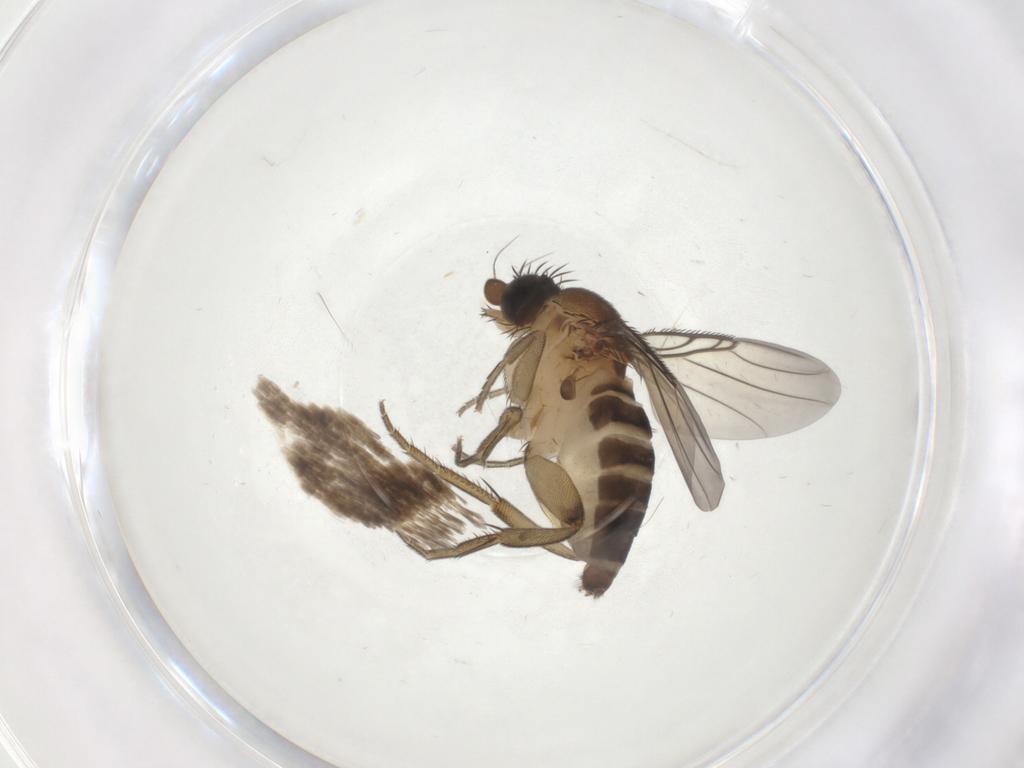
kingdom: Animalia
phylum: Arthropoda
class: Insecta
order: Diptera
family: Phoridae
